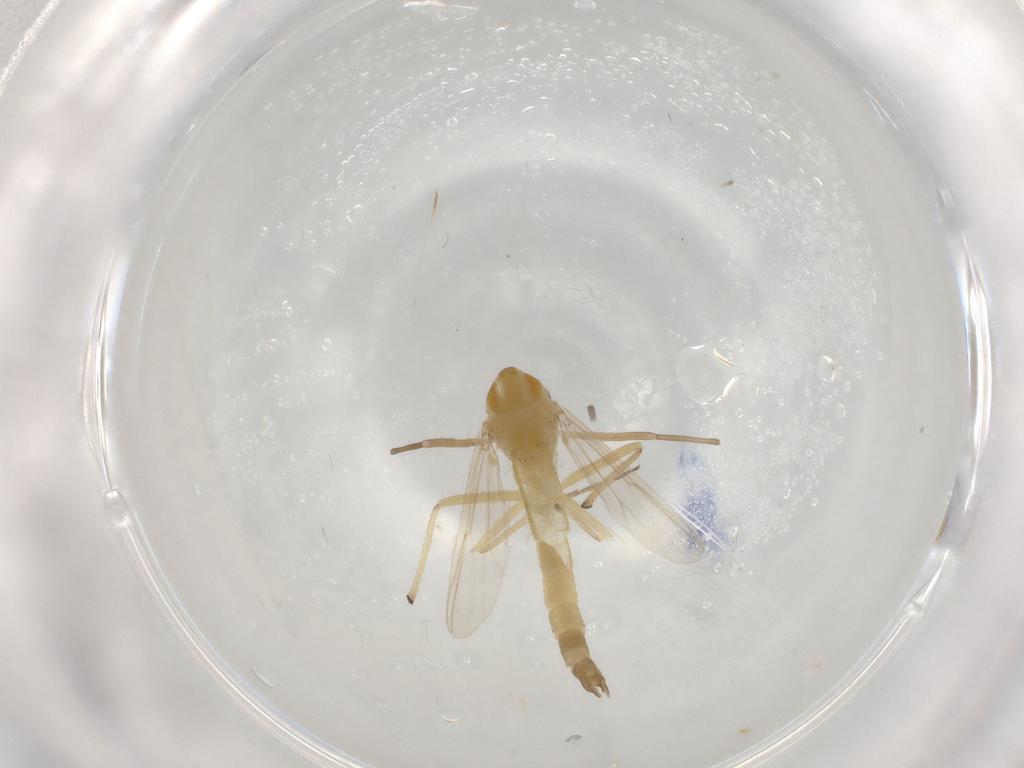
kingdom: Animalia
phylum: Arthropoda
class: Insecta
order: Diptera
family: Chironomidae
